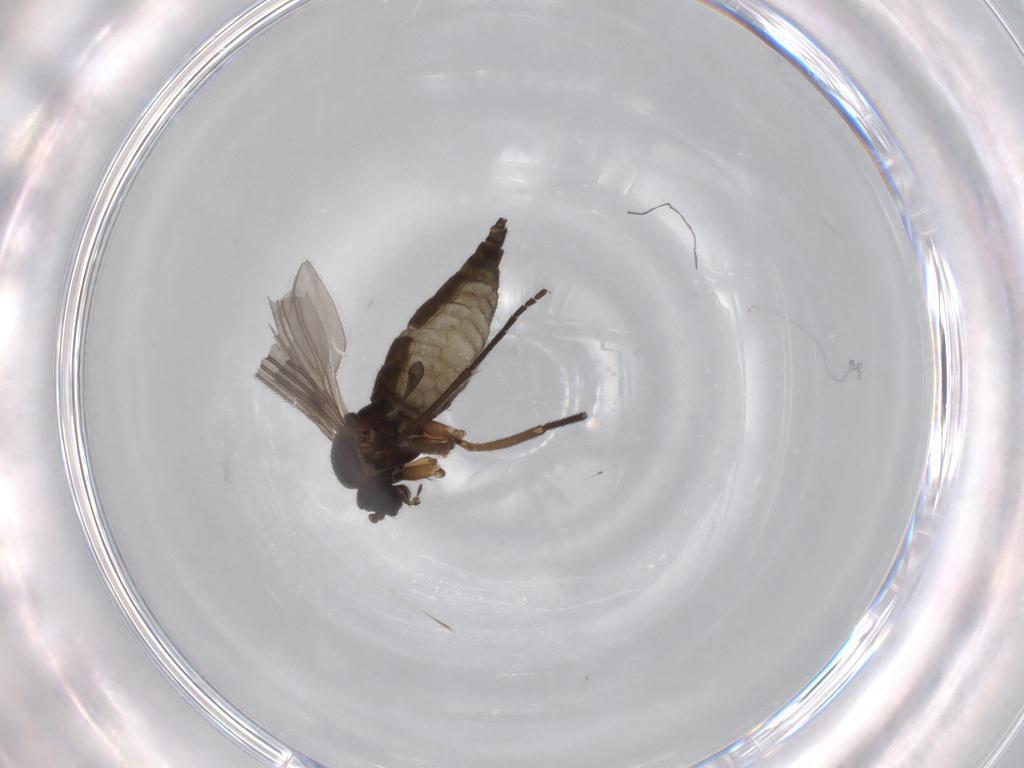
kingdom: Animalia
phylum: Arthropoda
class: Insecta
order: Diptera
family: Sciaridae
